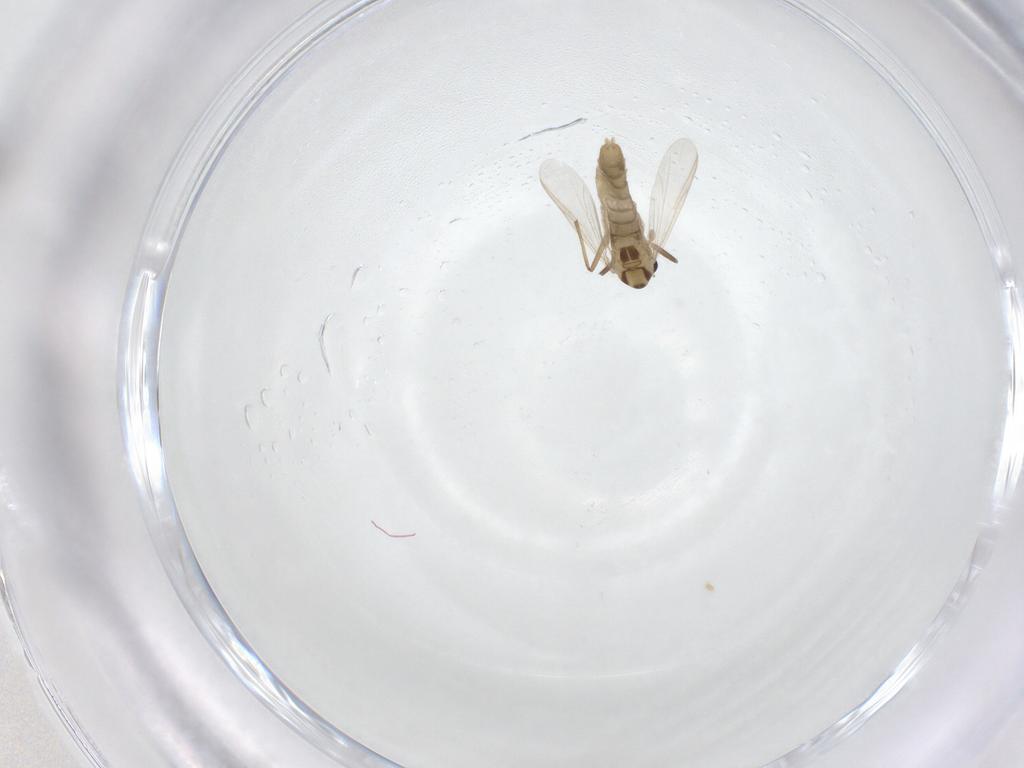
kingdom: Animalia
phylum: Arthropoda
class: Insecta
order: Diptera
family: Chironomidae
